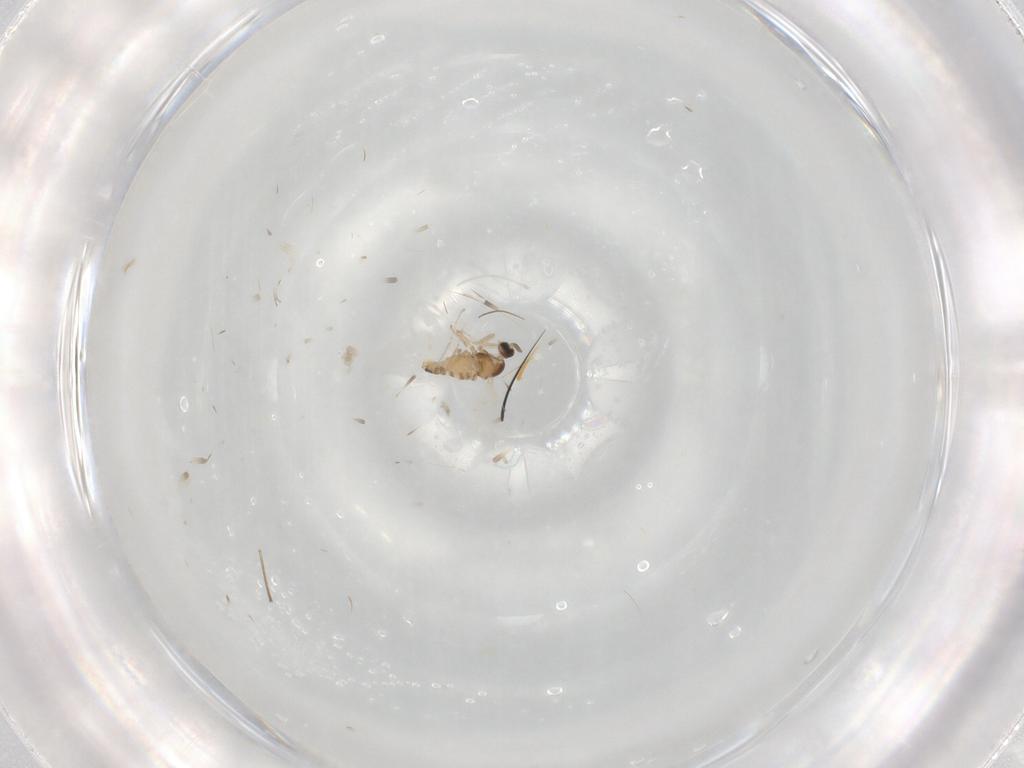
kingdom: Animalia
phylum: Arthropoda
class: Insecta
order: Diptera
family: Cecidomyiidae
